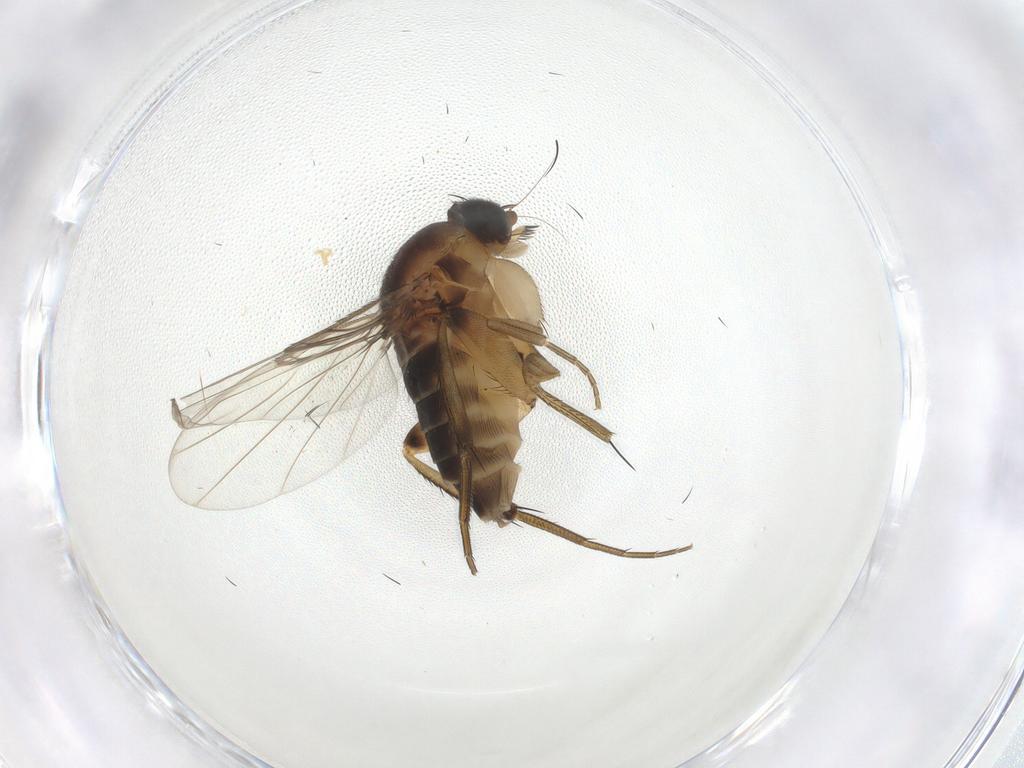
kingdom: Animalia
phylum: Arthropoda
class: Insecta
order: Diptera
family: Phoridae
